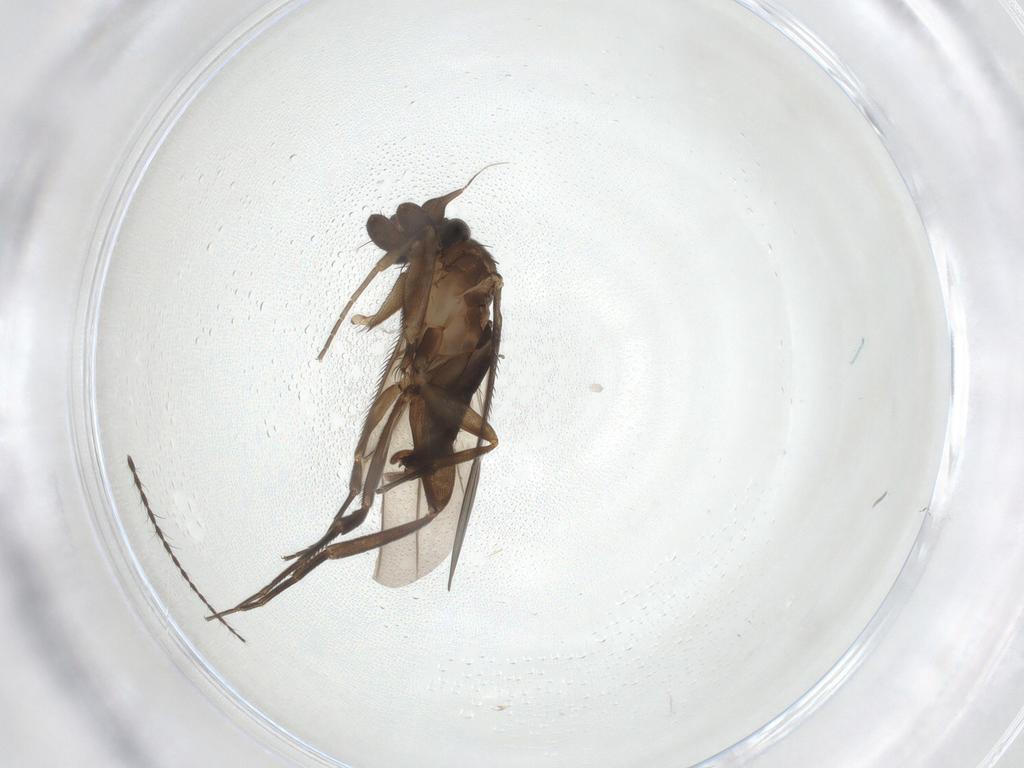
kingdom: Animalia
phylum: Arthropoda
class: Insecta
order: Diptera
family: Phoridae
